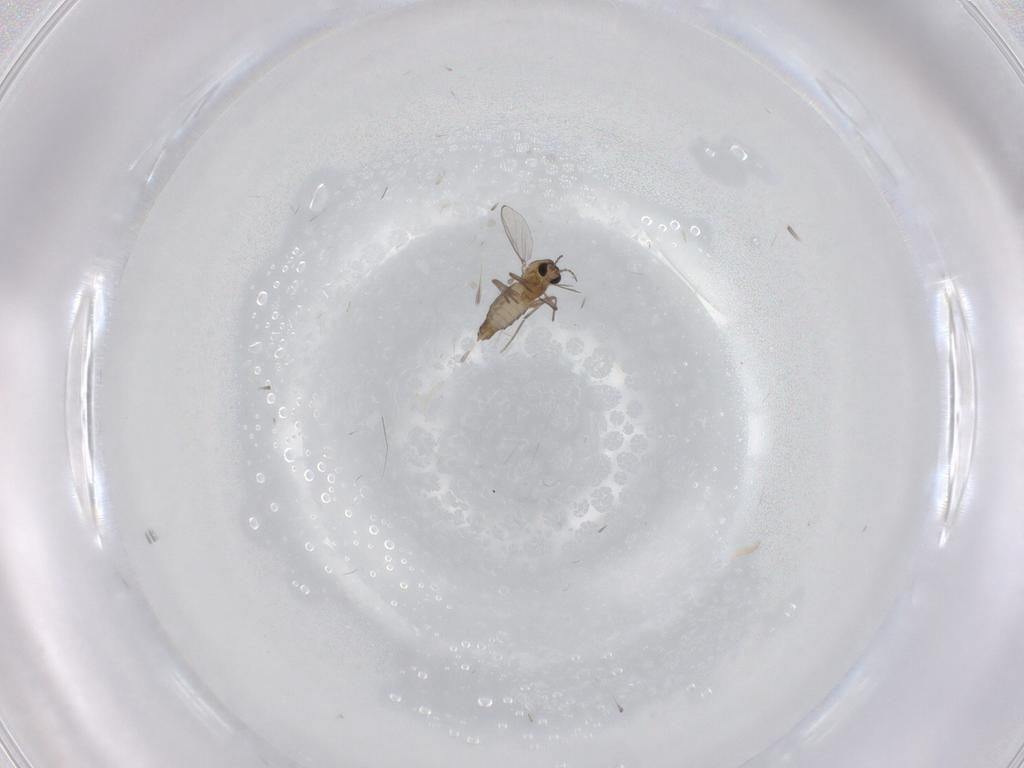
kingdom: Animalia
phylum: Arthropoda
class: Insecta
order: Diptera
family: Chironomidae
